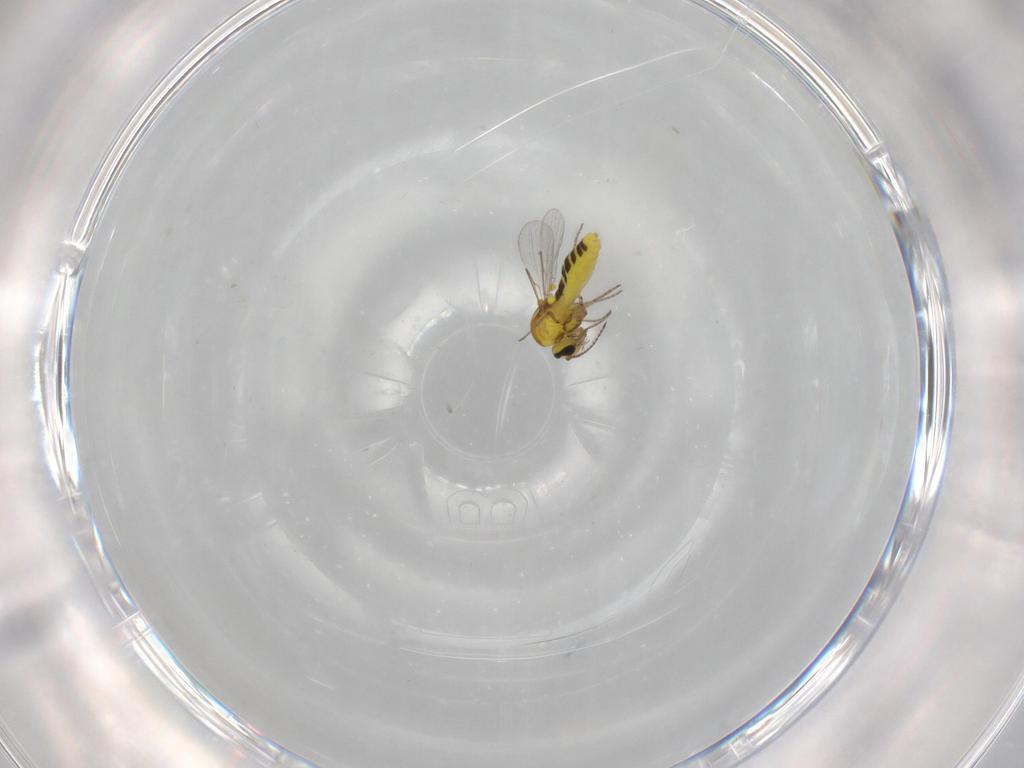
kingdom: Animalia
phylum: Arthropoda
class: Insecta
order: Diptera
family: Ceratopogonidae
